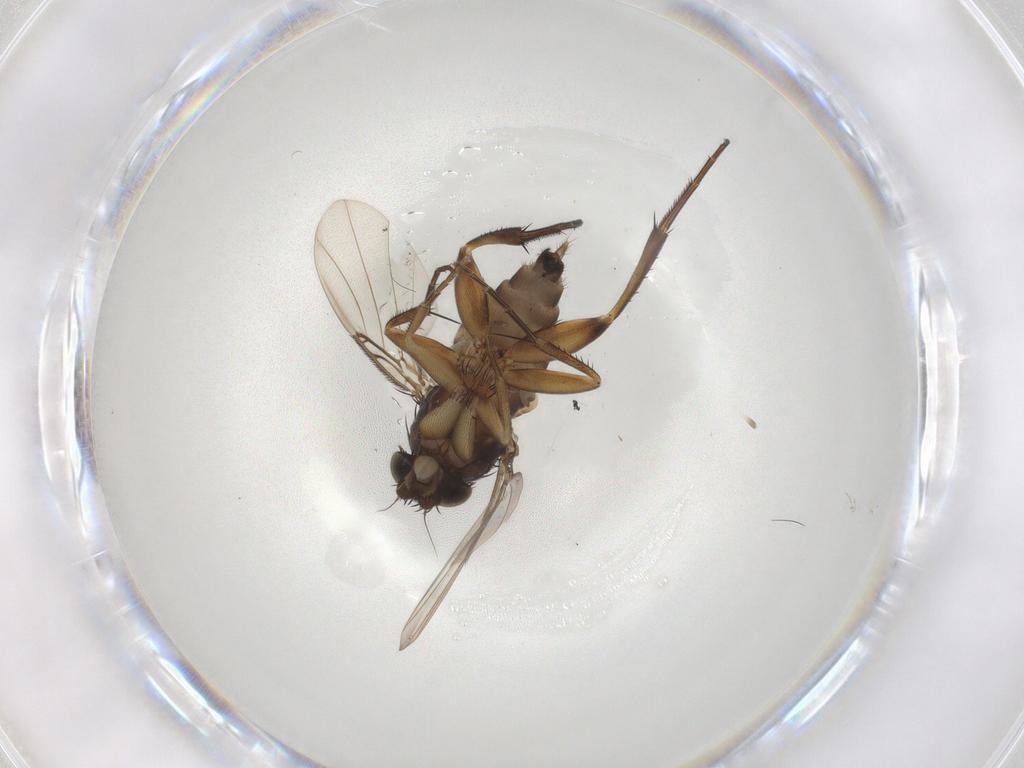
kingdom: Animalia
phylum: Arthropoda
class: Insecta
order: Diptera
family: Phoridae
